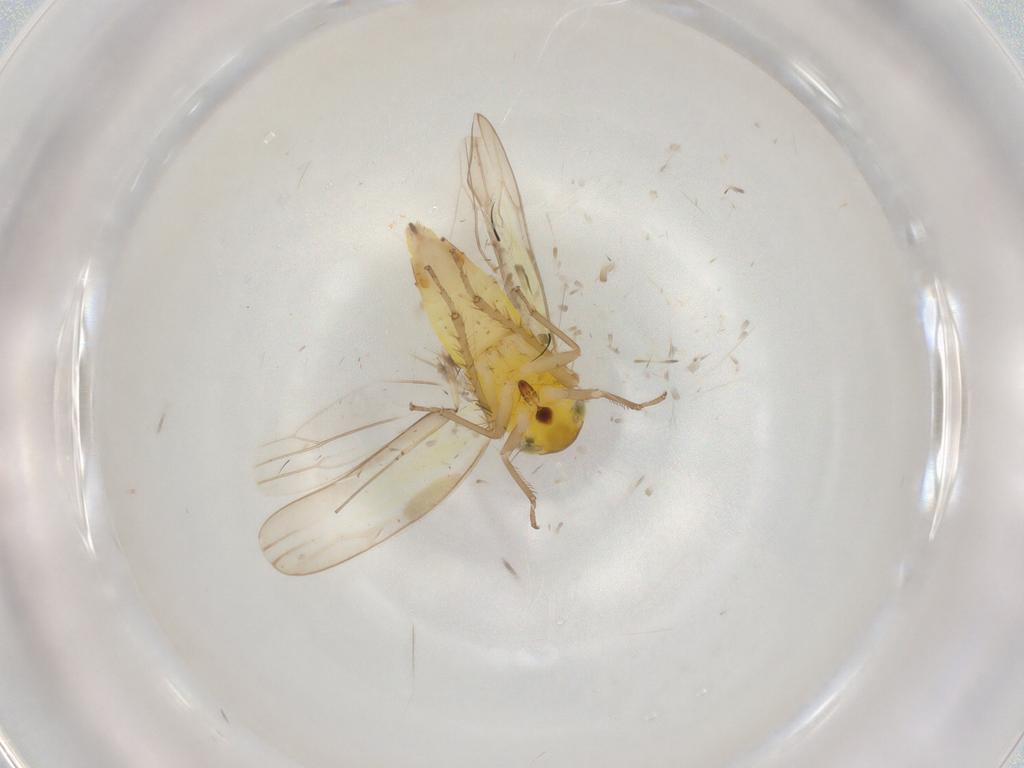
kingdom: Animalia
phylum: Arthropoda
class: Insecta
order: Hemiptera
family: Cicadellidae
